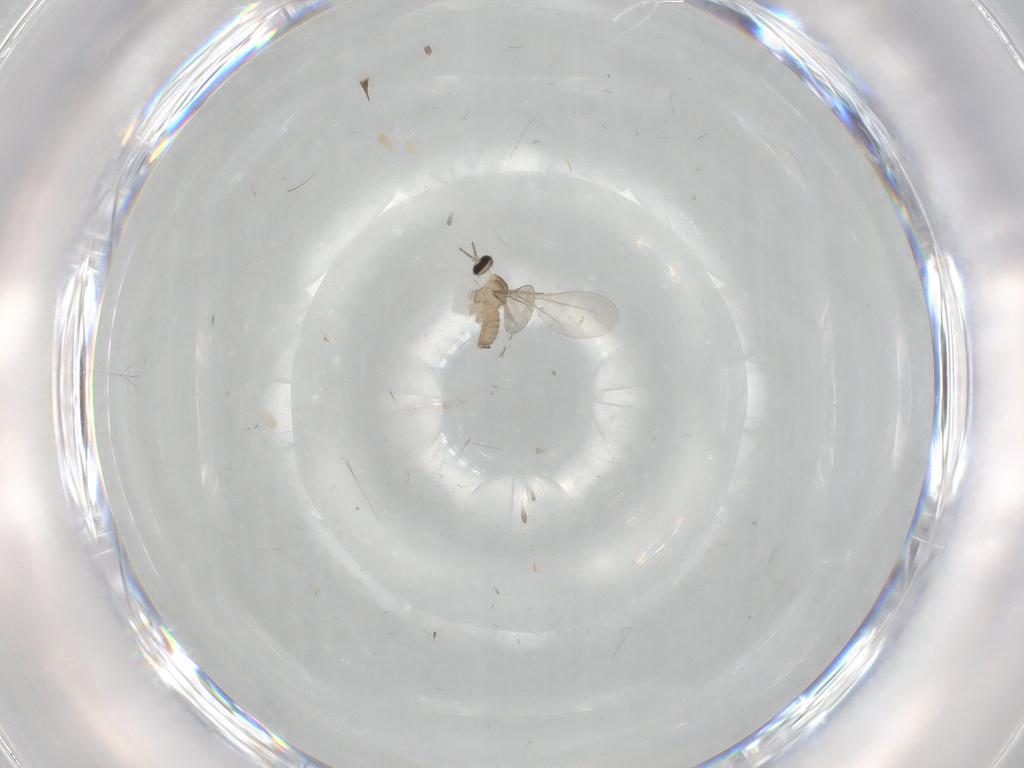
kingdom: Animalia
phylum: Arthropoda
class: Insecta
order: Diptera
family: Cecidomyiidae
